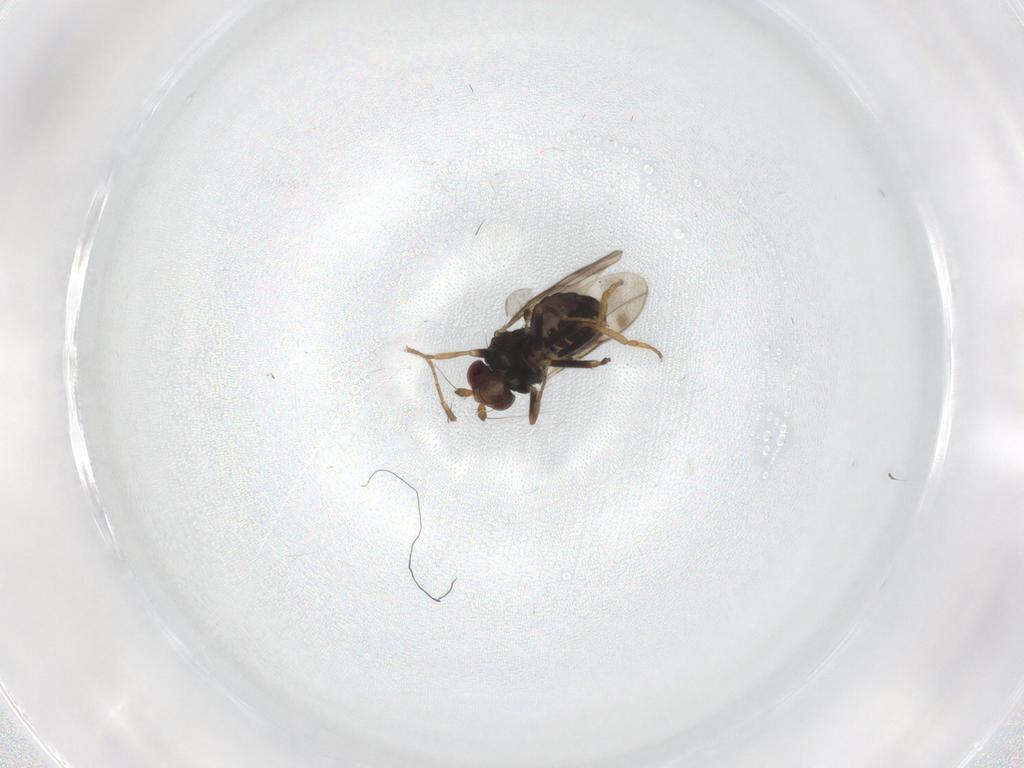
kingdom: Animalia
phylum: Arthropoda
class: Insecta
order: Diptera
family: Sphaeroceridae
